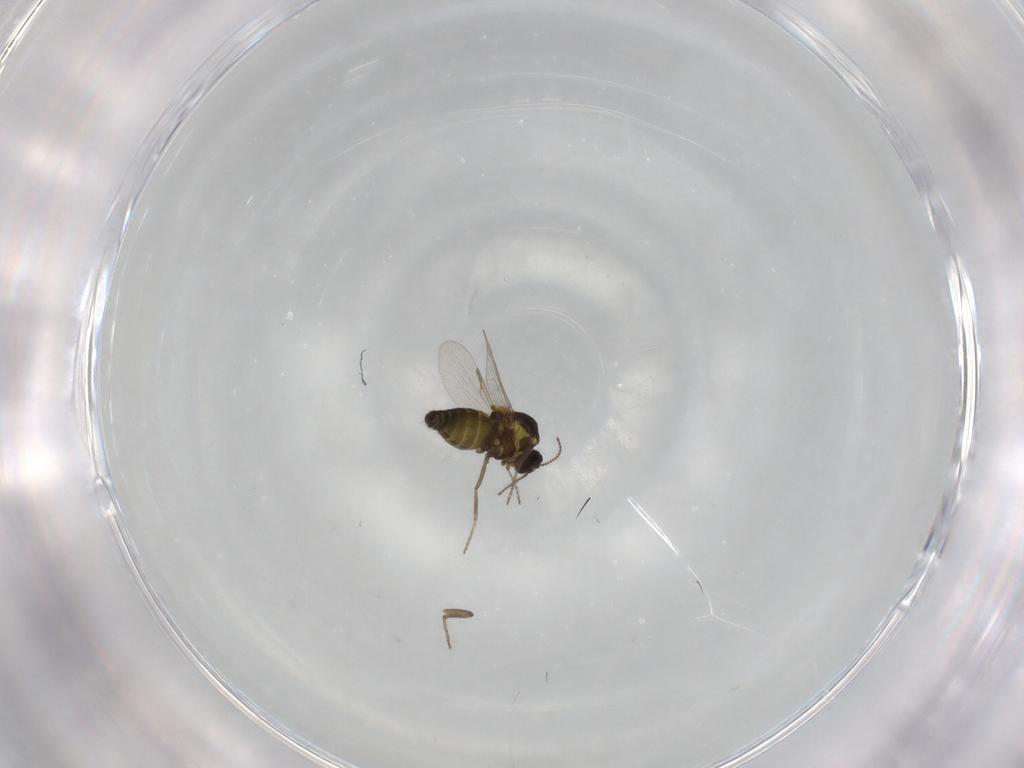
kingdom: Animalia
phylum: Arthropoda
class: Insecta
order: Diptera
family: Ceratopogonidae
